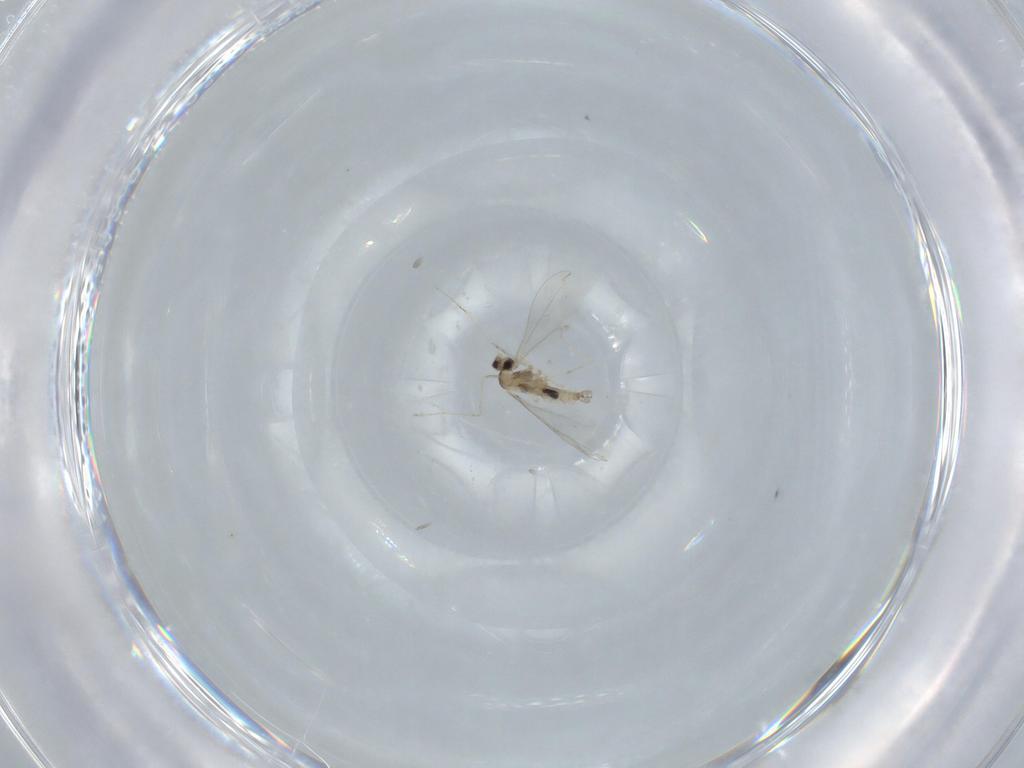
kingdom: Animalia
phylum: Arthropoda
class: Insecta
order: Diptera
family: Cecidomyiidae
